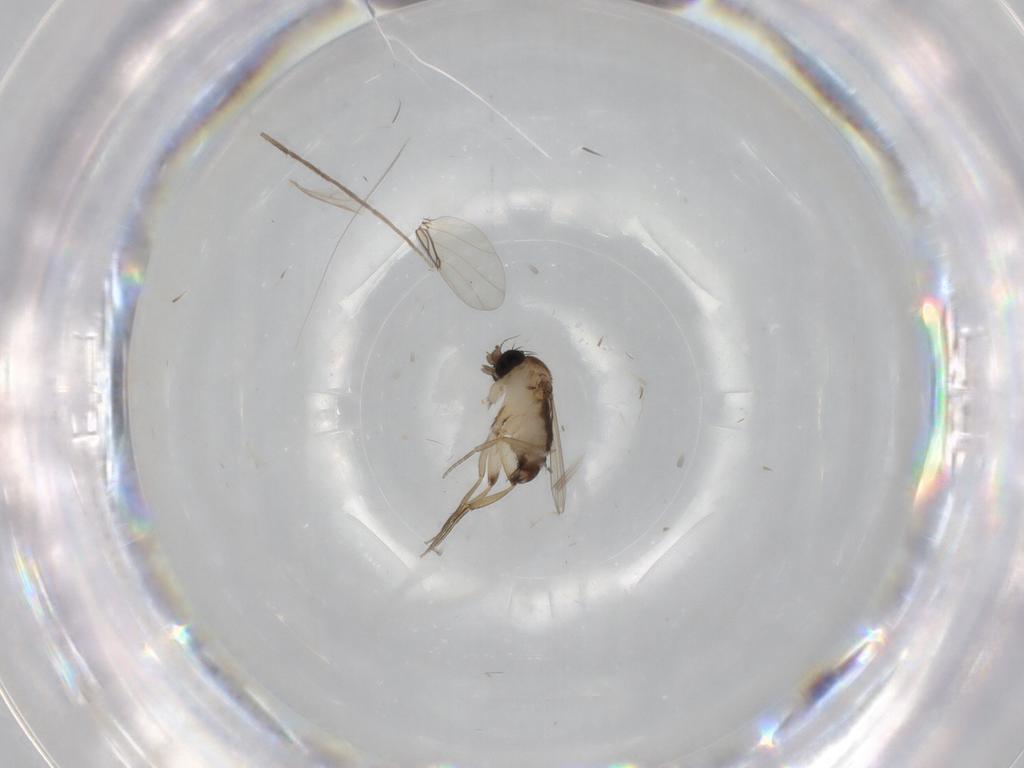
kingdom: Animalia
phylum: Arthropoda
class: Insecta
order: Diptera
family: Phoridae
